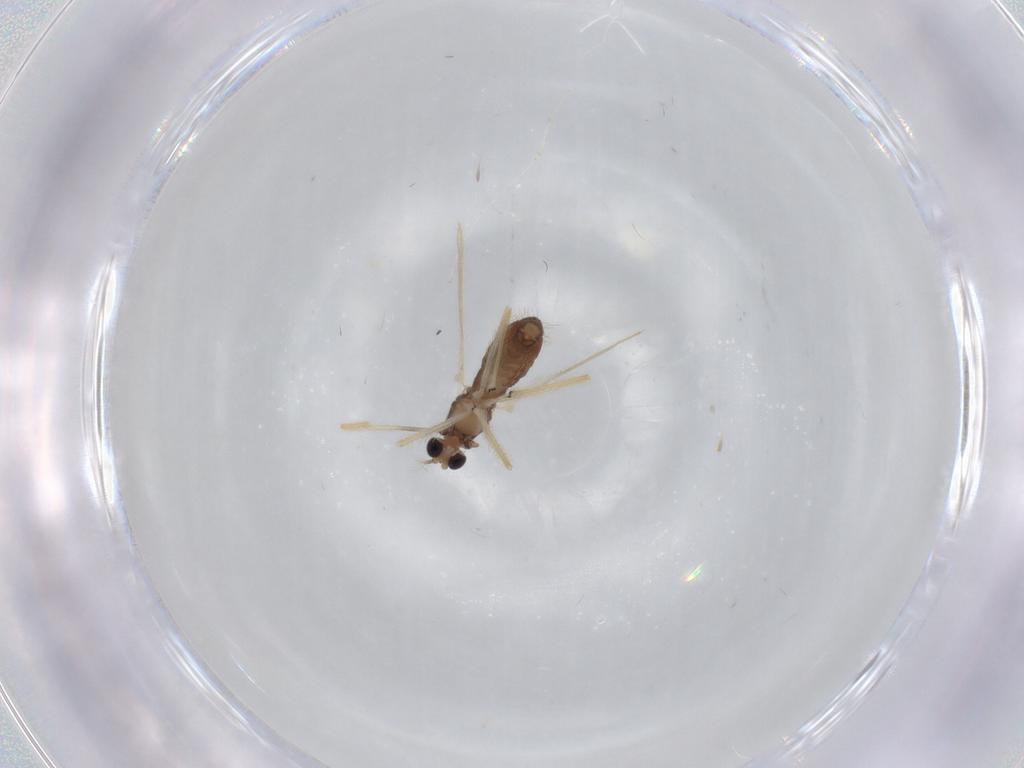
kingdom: Animalia
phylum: Arthropoda
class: Insecta
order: Diptera
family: Chironomidae
